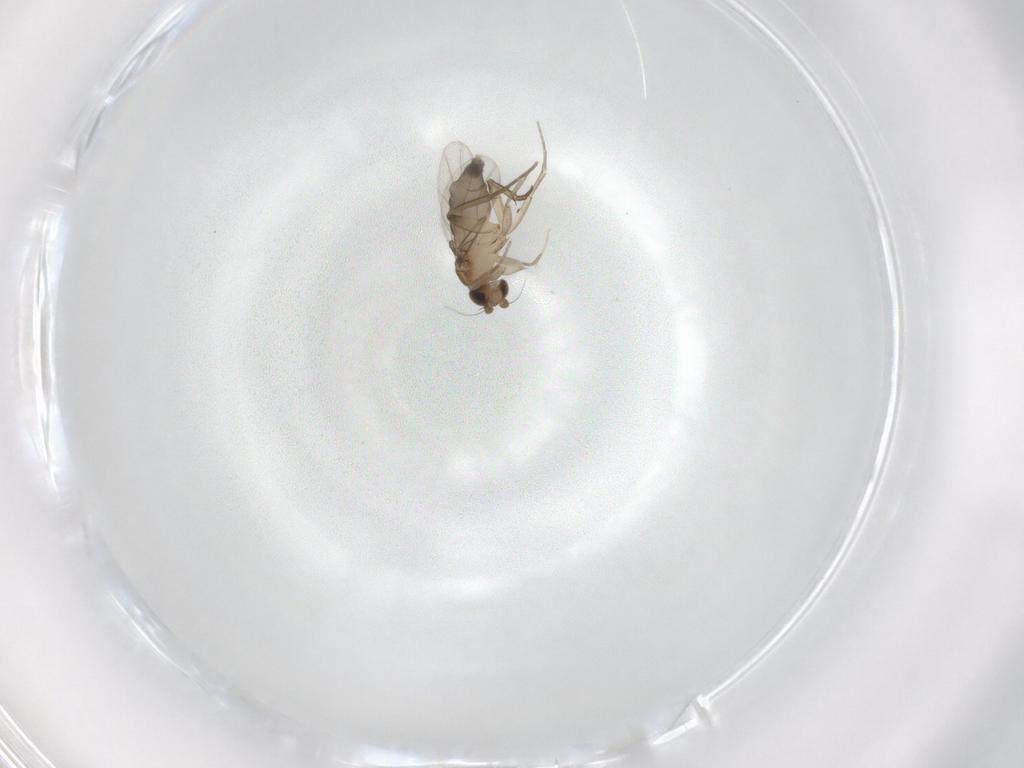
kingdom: Animalia
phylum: Arthropoda
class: Insecta
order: Diptera
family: Phoridae
